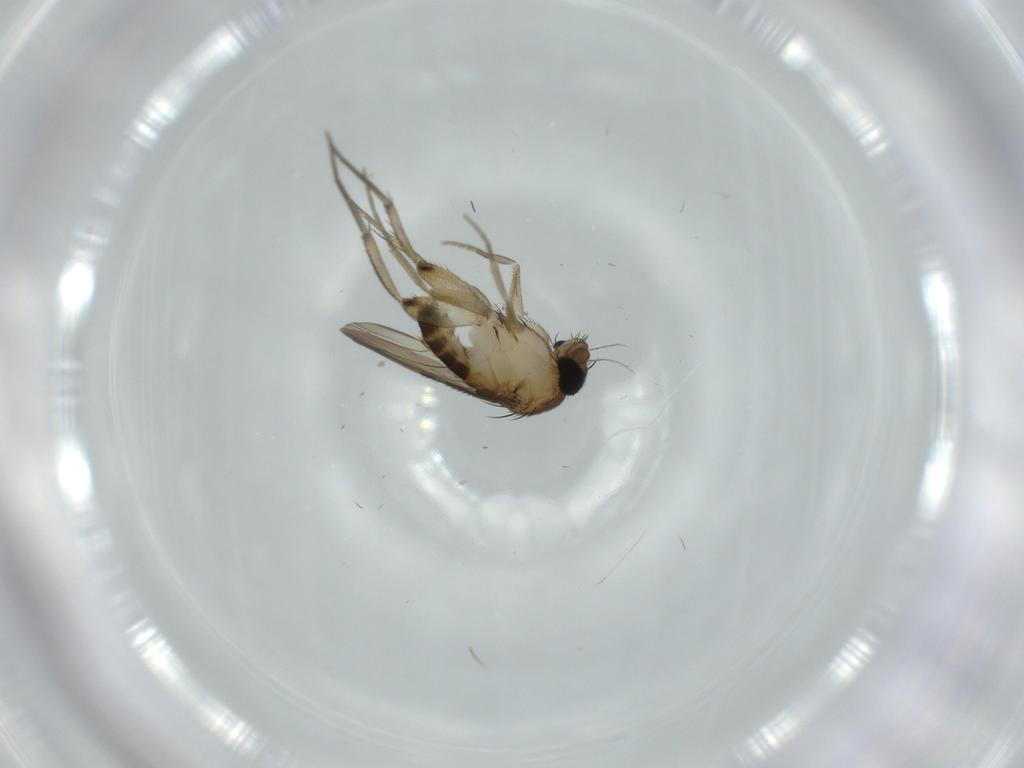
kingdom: Animalia
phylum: Arthropoda
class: Insecta
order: Diptera
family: Phoridae
